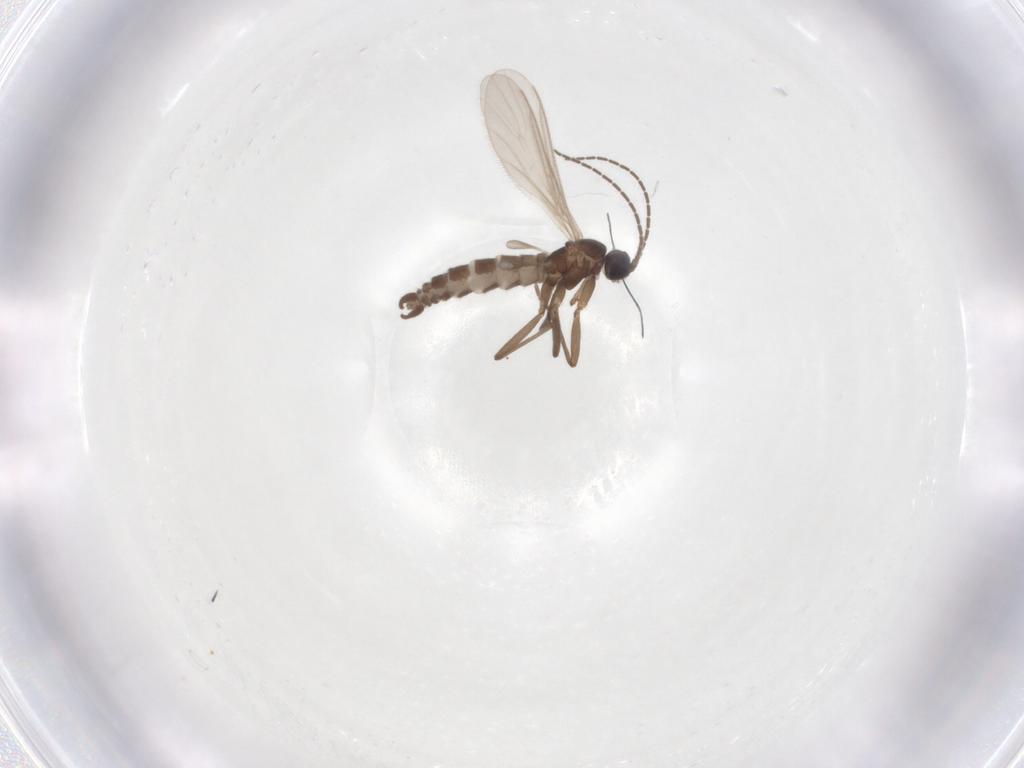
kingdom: Animalia
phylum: Arthropoda
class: Insecta
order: Diptera
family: Sciaridae
